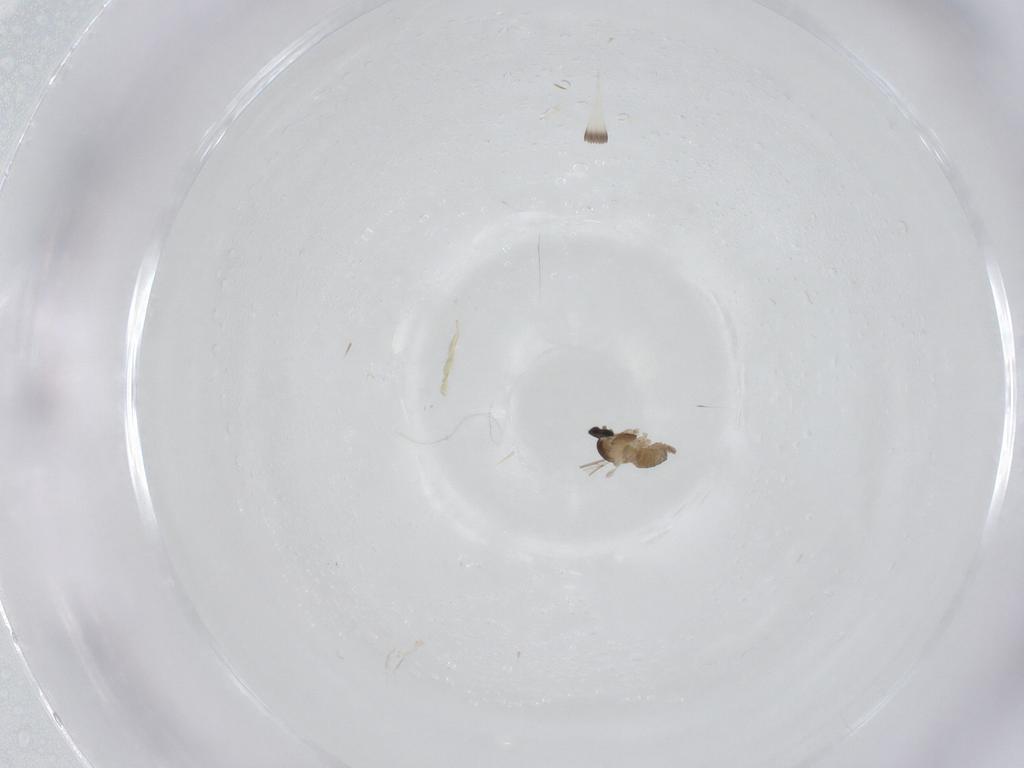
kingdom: Animalia
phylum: Arthropoda
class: Insecta
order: Diptera
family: Cecidomyiidae
